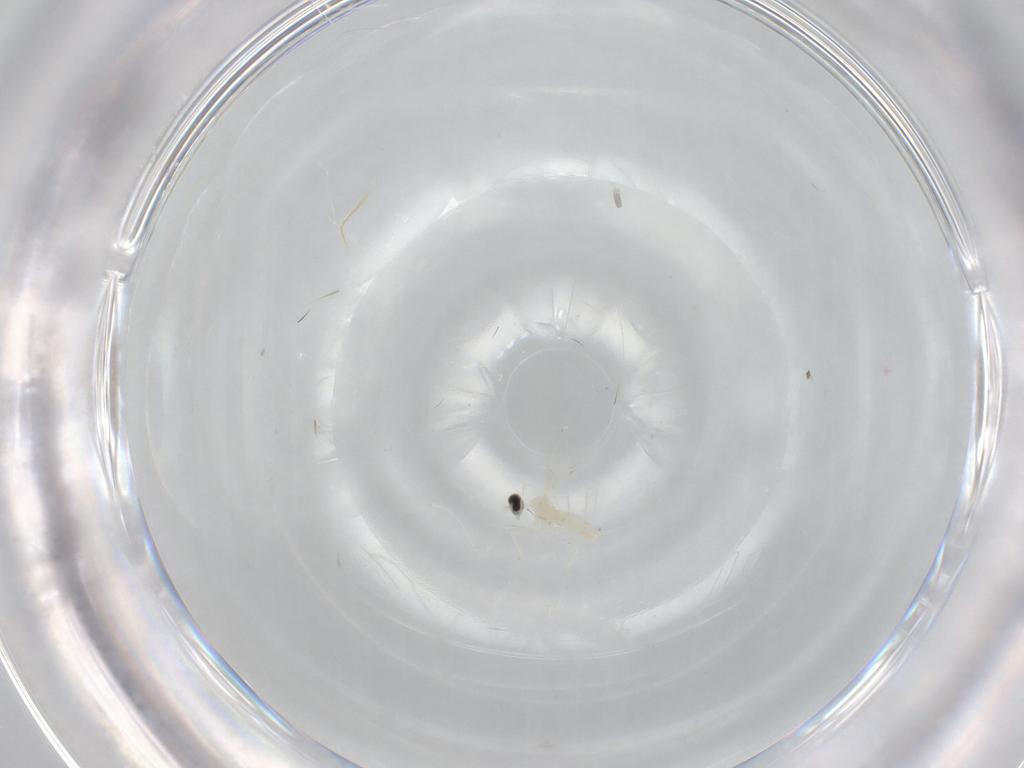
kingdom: Animalia
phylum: Arthropoda
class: Insecta
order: Diptera
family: Cecidomyiidae
